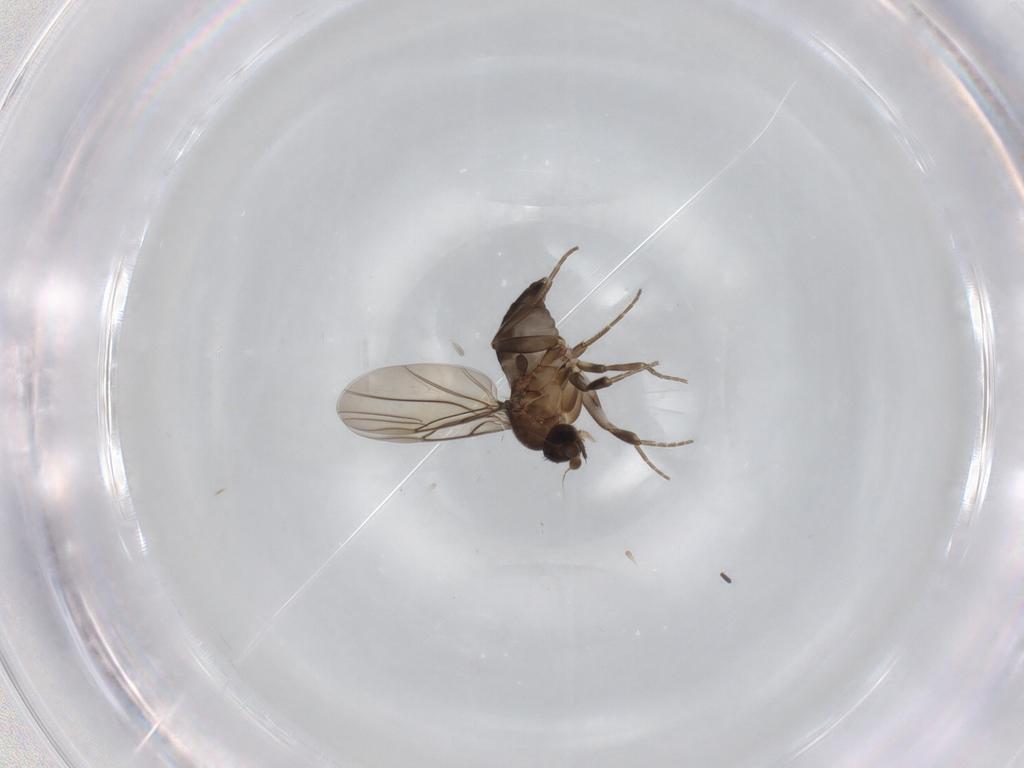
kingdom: Animalia
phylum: Arthropoda
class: Insecta
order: Diptera
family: Phoridae
